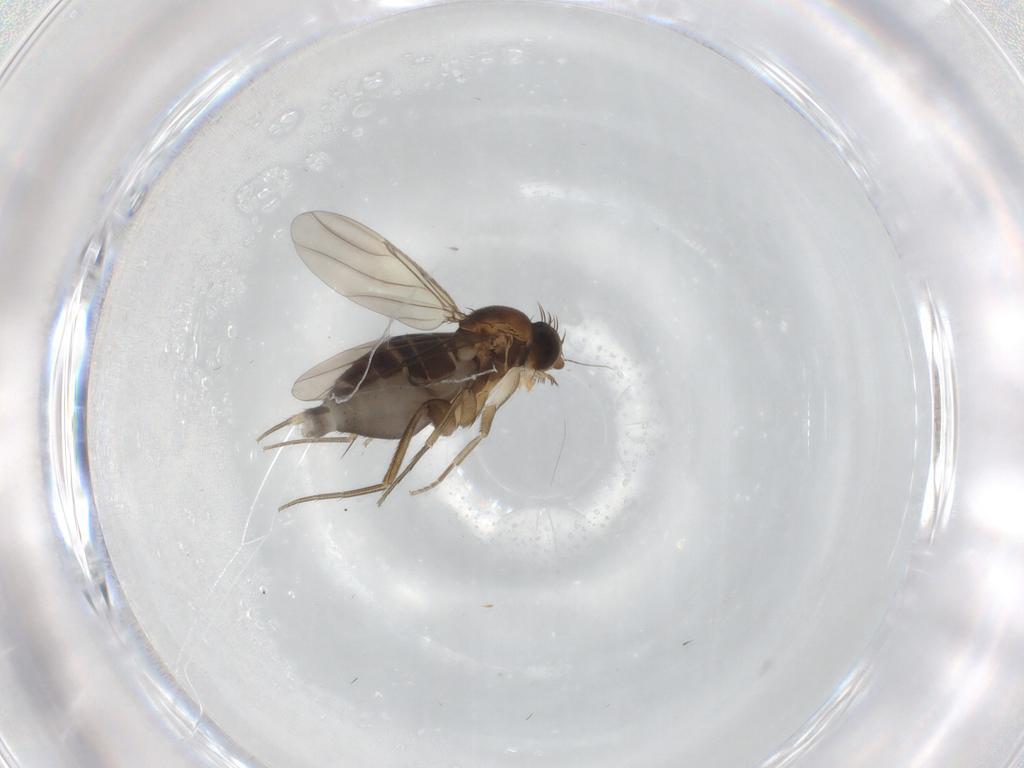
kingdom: Animalia
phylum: Arthropoda
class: Insecta
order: Diptera
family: Phoridae
